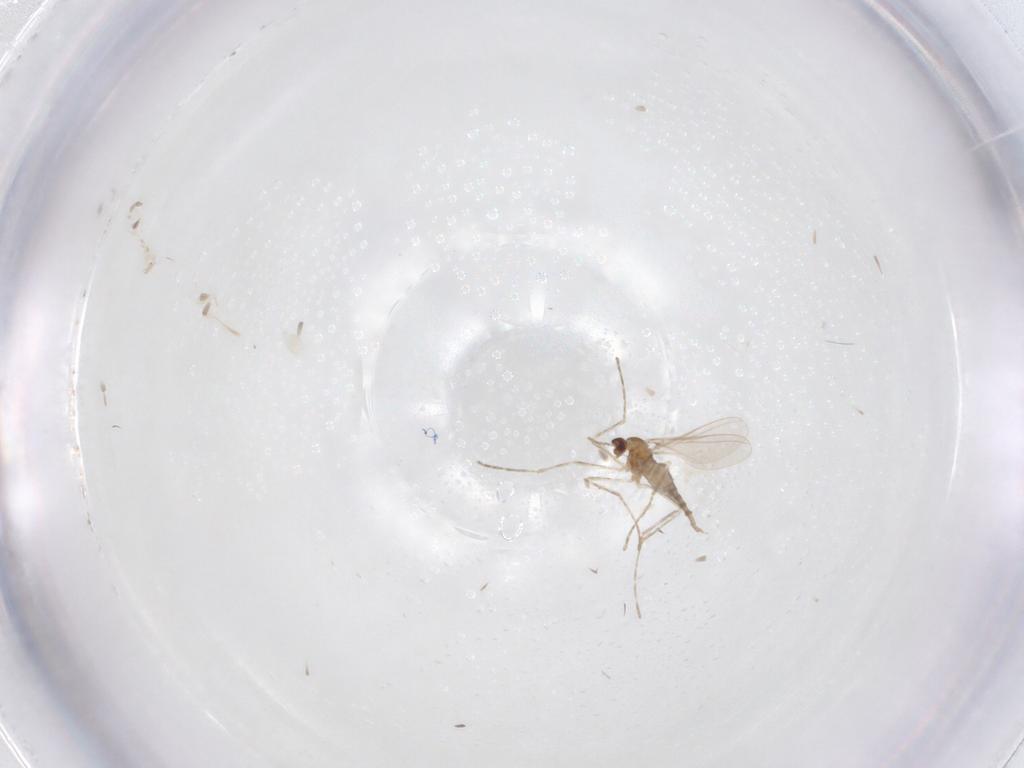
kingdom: Animalia
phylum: Arthropoda
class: Insecta
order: Diptera
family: Cecidomyiidae
